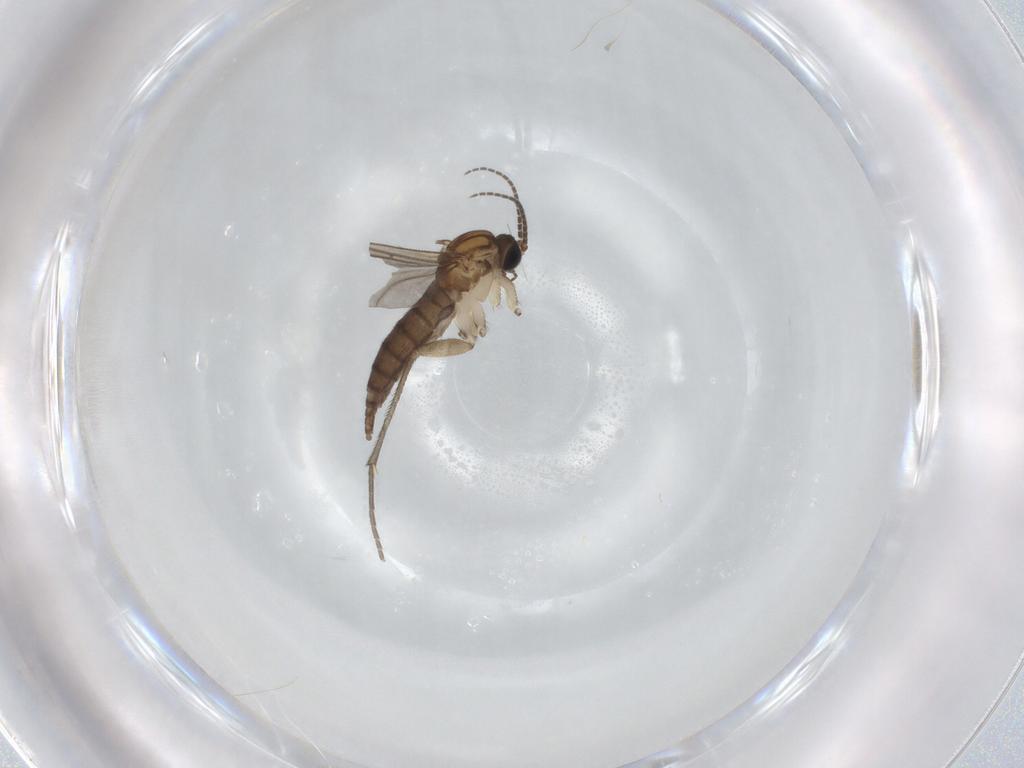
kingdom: Animalia
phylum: Arthropoda
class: Insecta
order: Diptera
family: Sciaridae
